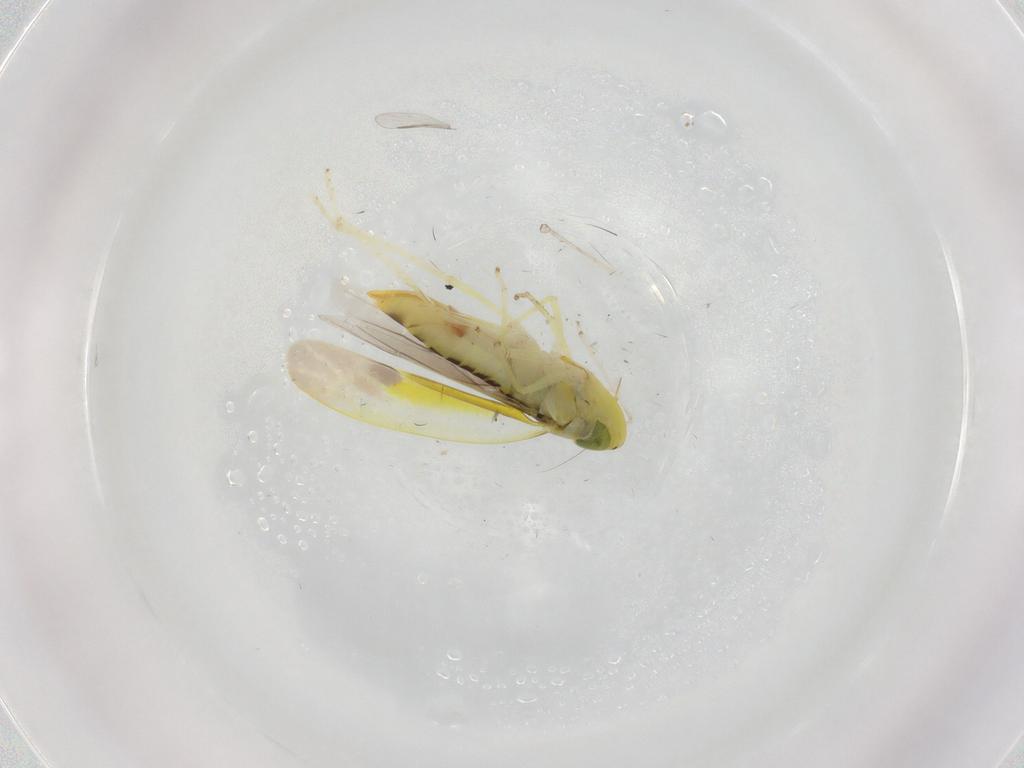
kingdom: Animalia
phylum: Arthropoda
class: Insecta
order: Hemiptera
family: Cicadellidae
